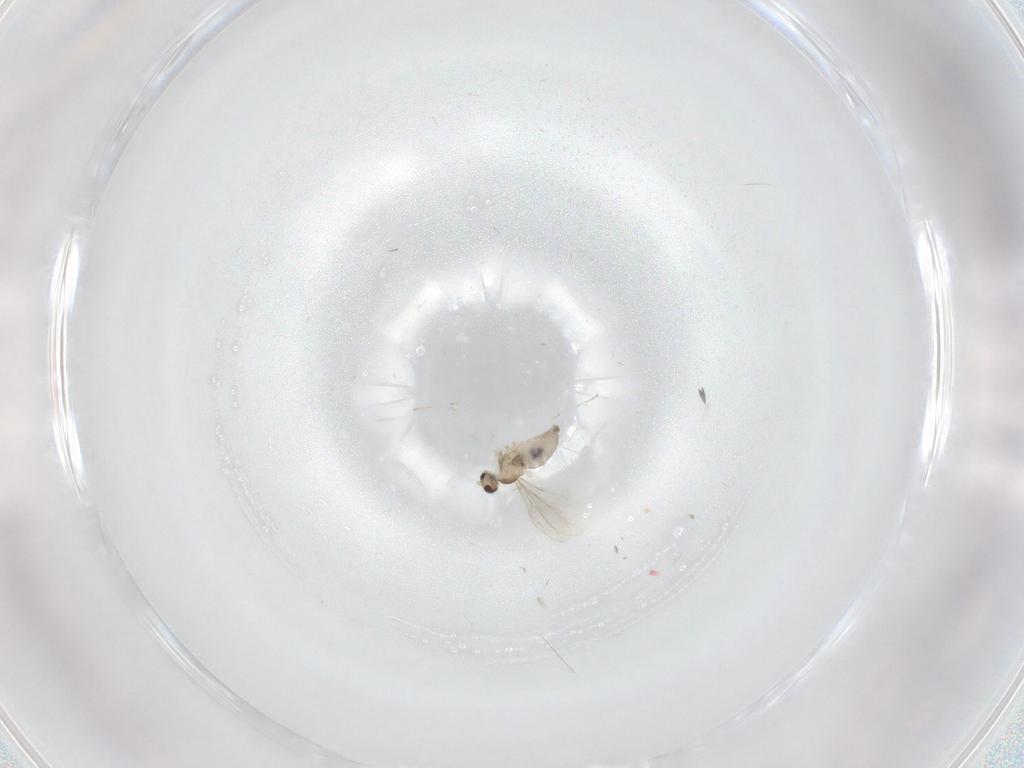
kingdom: Animalia
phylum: Arthropoda
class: Insecta
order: Diptera
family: Cecidomyiidae
